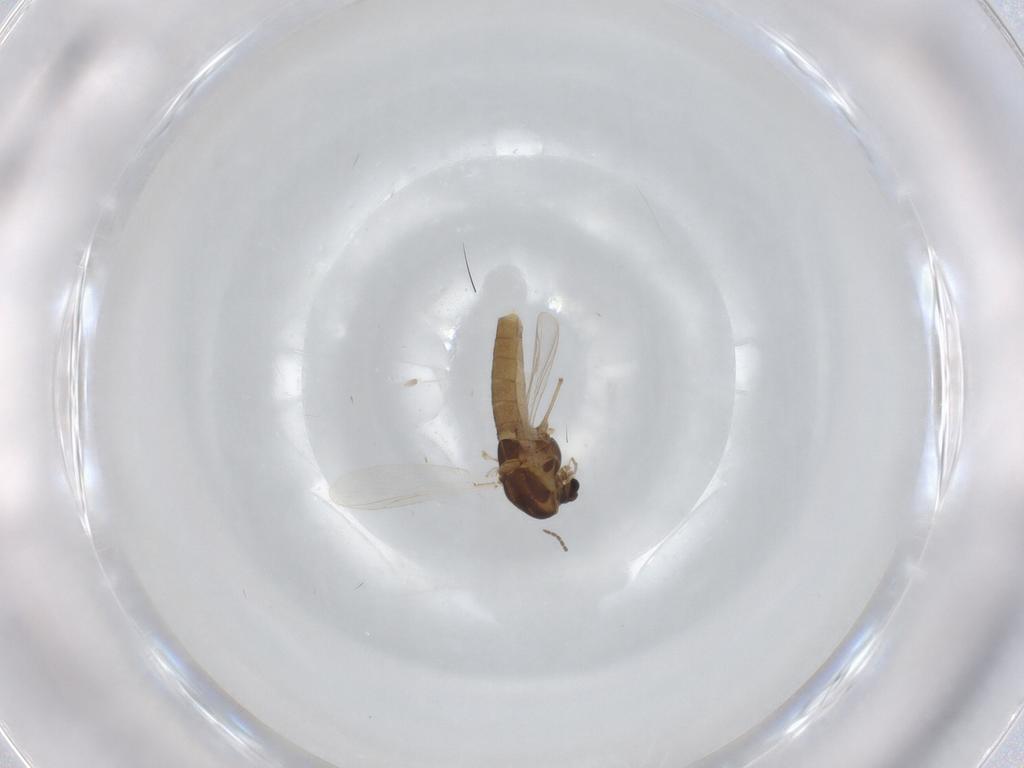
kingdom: Animalia
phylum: Arthropoda
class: Insecta
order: Diptera
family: Chironomidae
